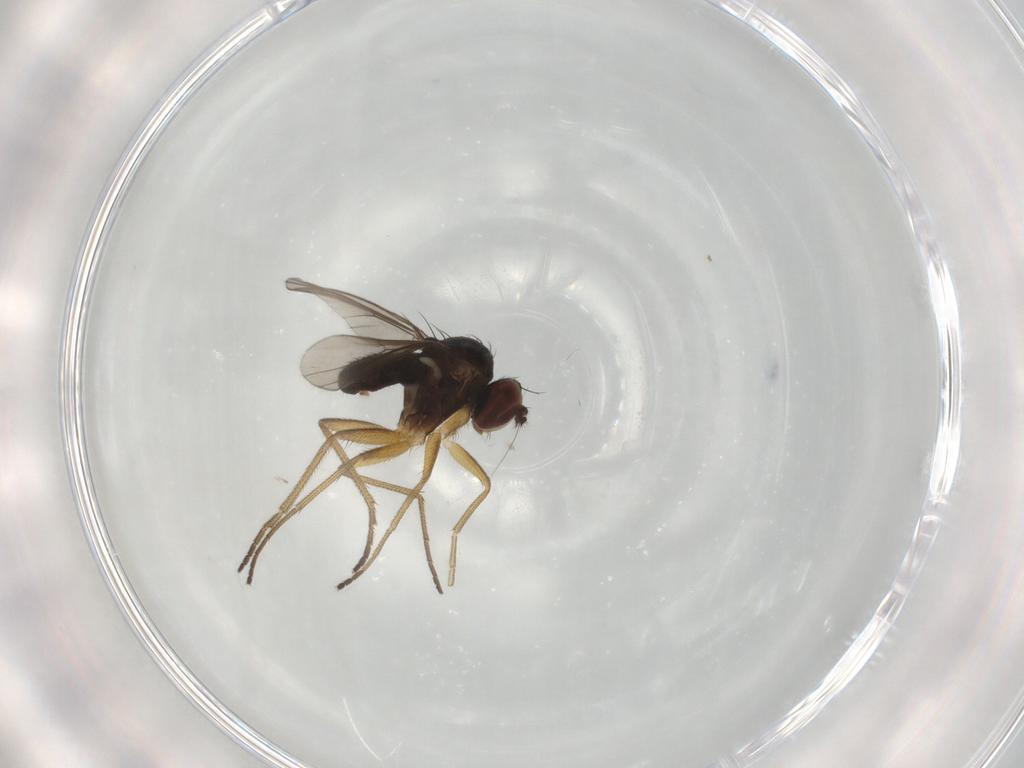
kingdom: Animalia
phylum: Arthropoda
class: Insecta
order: Diptera
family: Dolichopodidae
